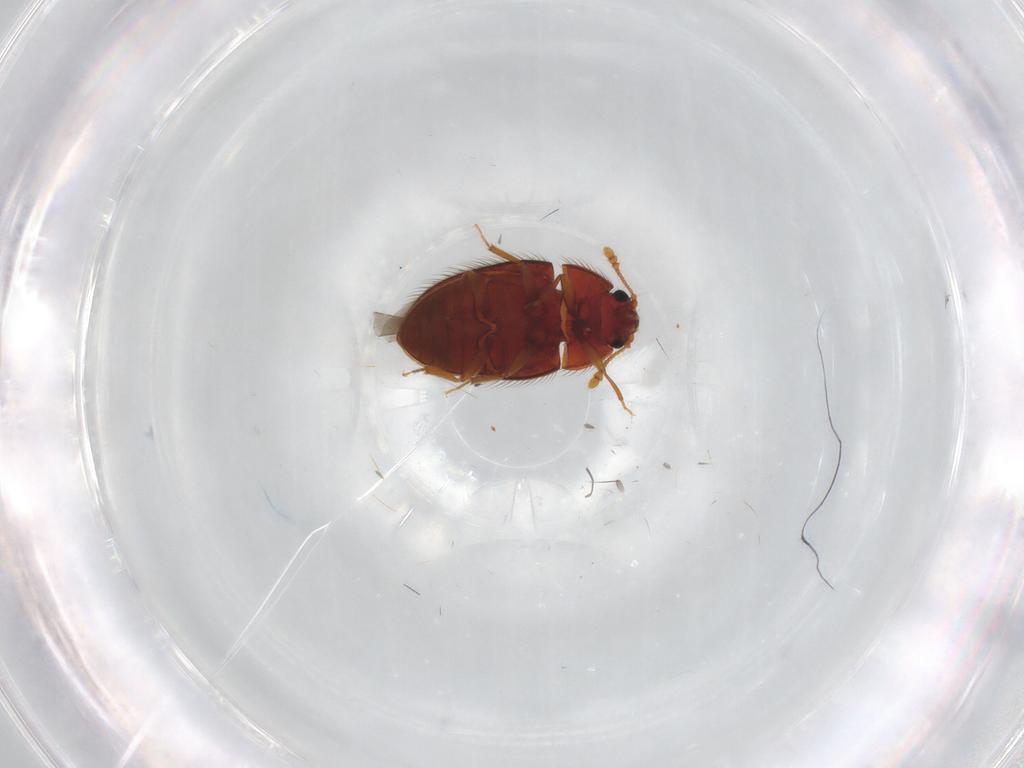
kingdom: Animalia
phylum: Arthropoda
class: Insecta
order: Coleoptera
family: Biphyllidae
